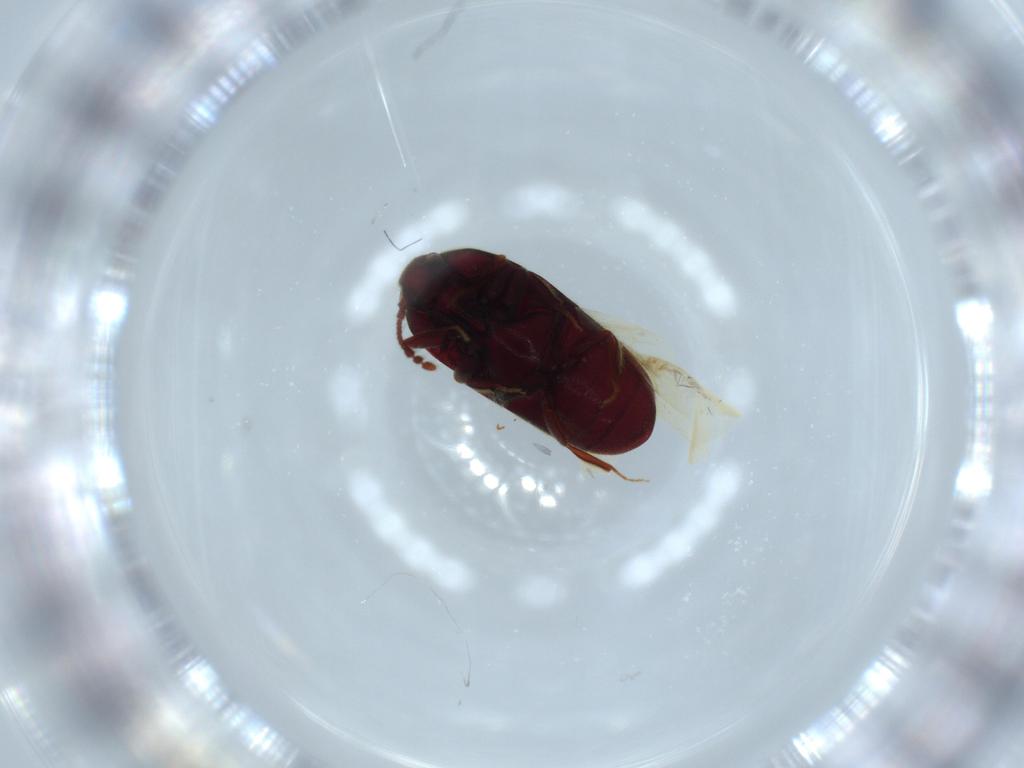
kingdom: Animalia
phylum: Arthropoda
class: Insecta
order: Coleoptera
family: Throscidae
